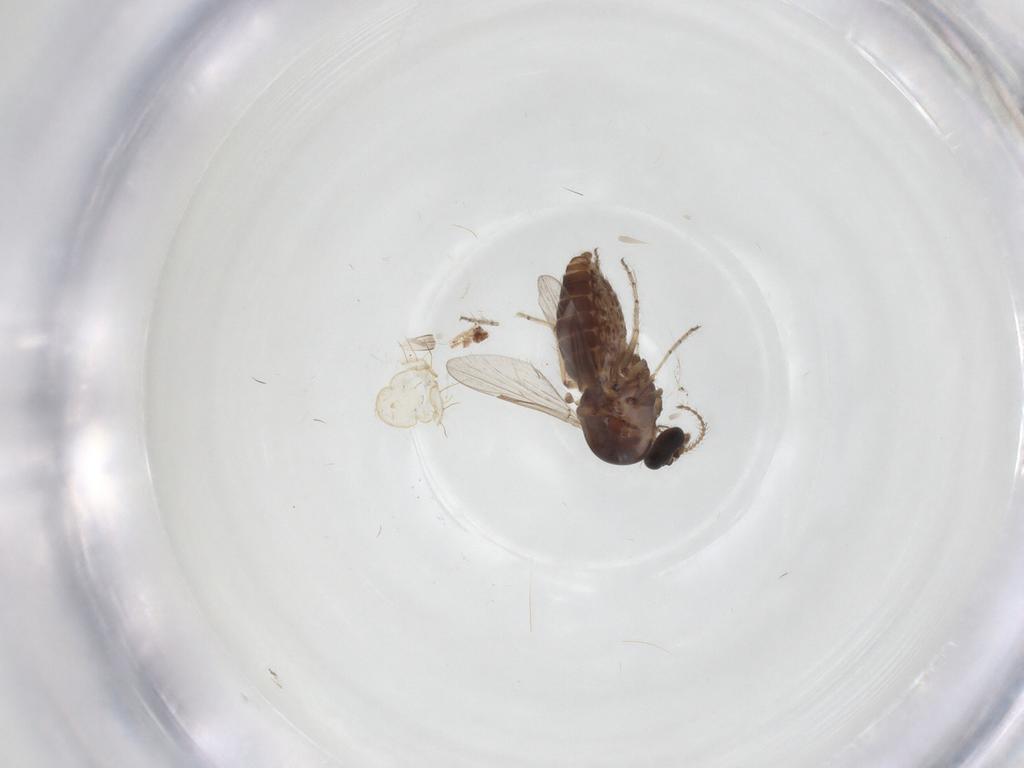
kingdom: Animalia
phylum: Arthropoda
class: Insecta
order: Diptera
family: Ceratopogonidae
